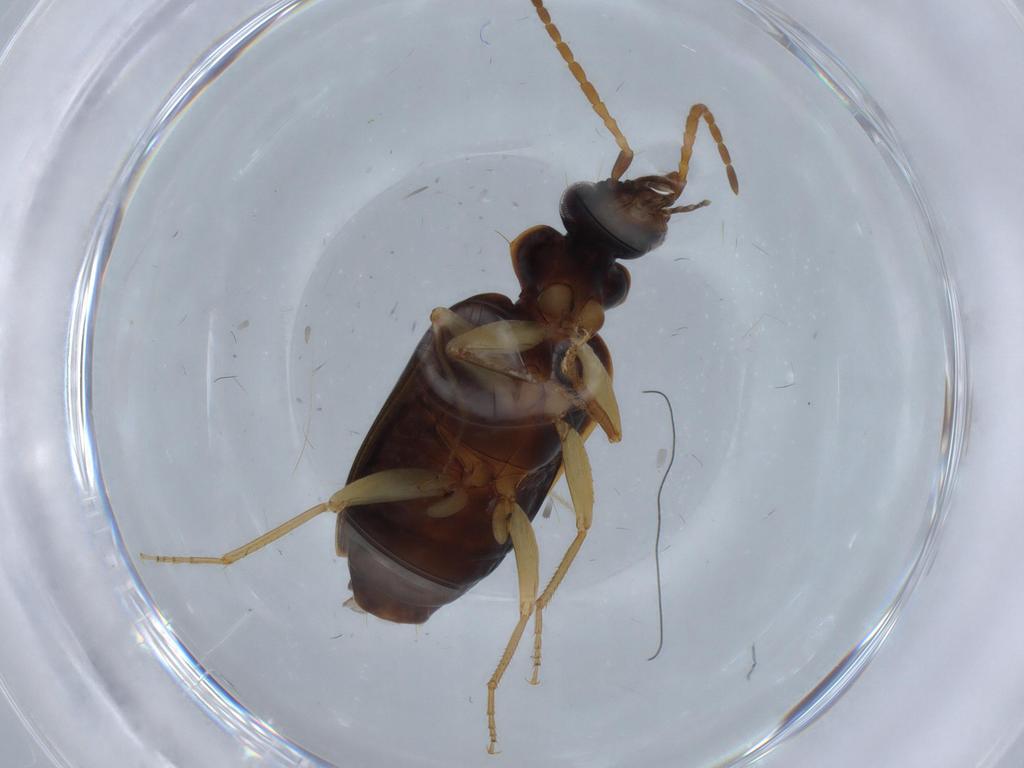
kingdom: Animalia
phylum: Arthropoda
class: Insecta
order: Coleoptera
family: Carabidae
